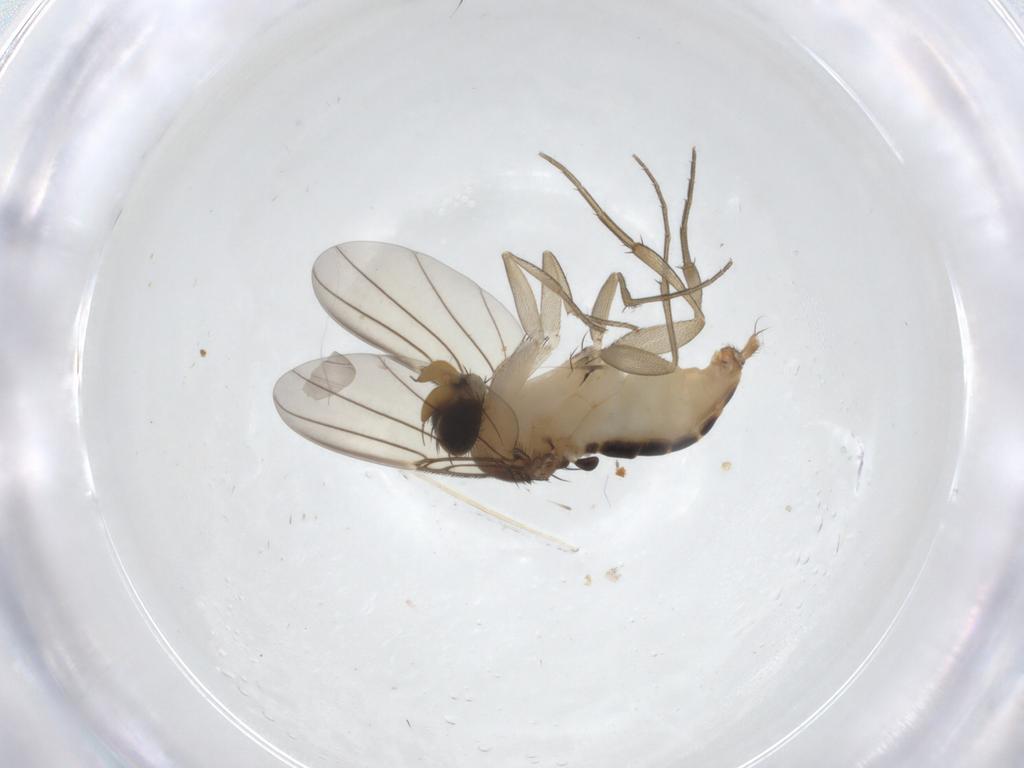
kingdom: Animalia
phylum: Arthropoda
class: Insecta
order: Diptera
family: Phoridae
